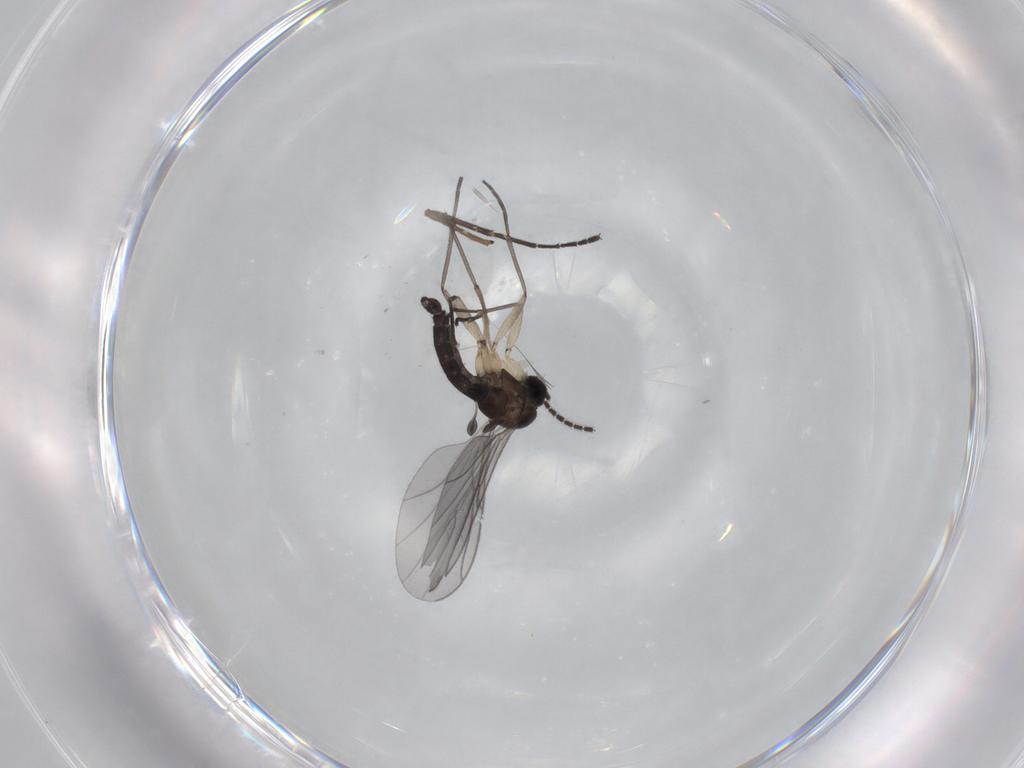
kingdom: Animalia
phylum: Arthropoda
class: Insecta
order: Diptera
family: Sciaridae
